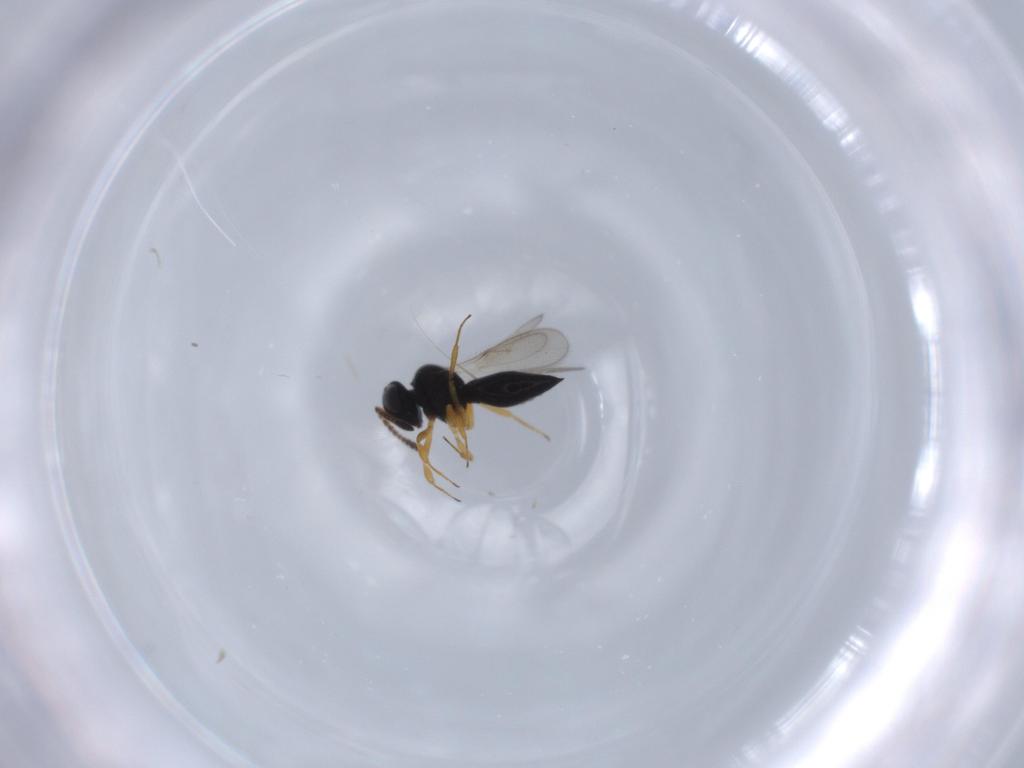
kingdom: Animalia
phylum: Arthropoda
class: Insecta
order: Hymenoptera
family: Scelionidae
